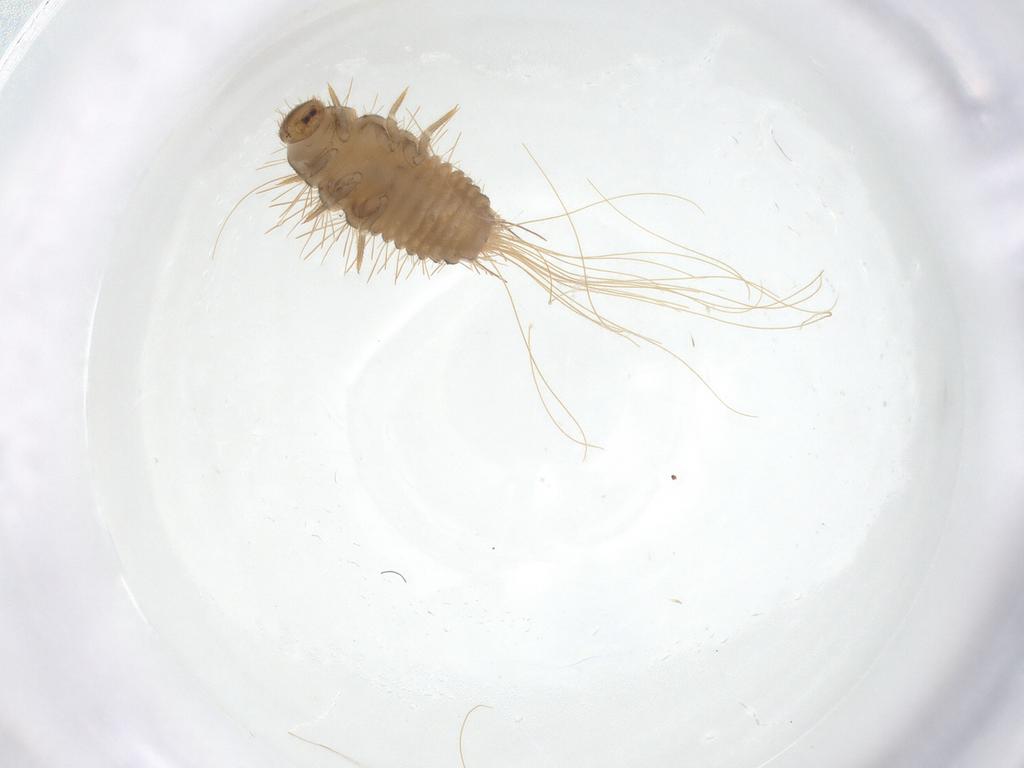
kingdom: Animalia
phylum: Arthropoda
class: Insecta
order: Coleoptera
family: Dermestidae
